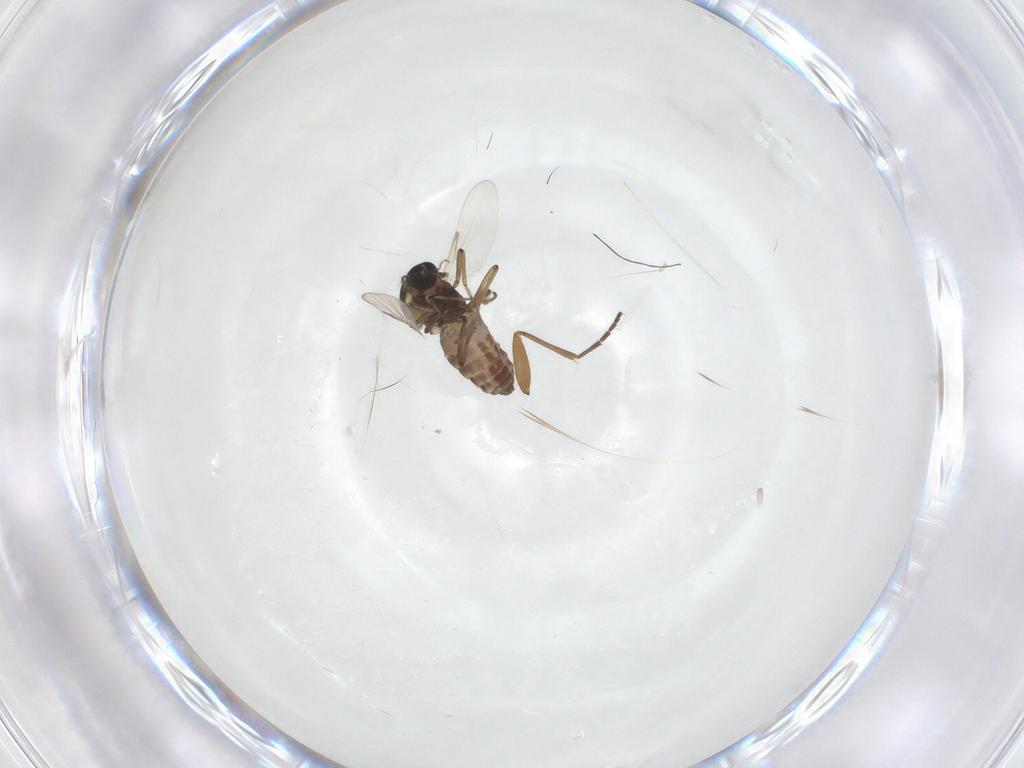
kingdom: Animalia
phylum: Arthropoda
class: Insecta
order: Diptera
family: Ceratopogonidae
